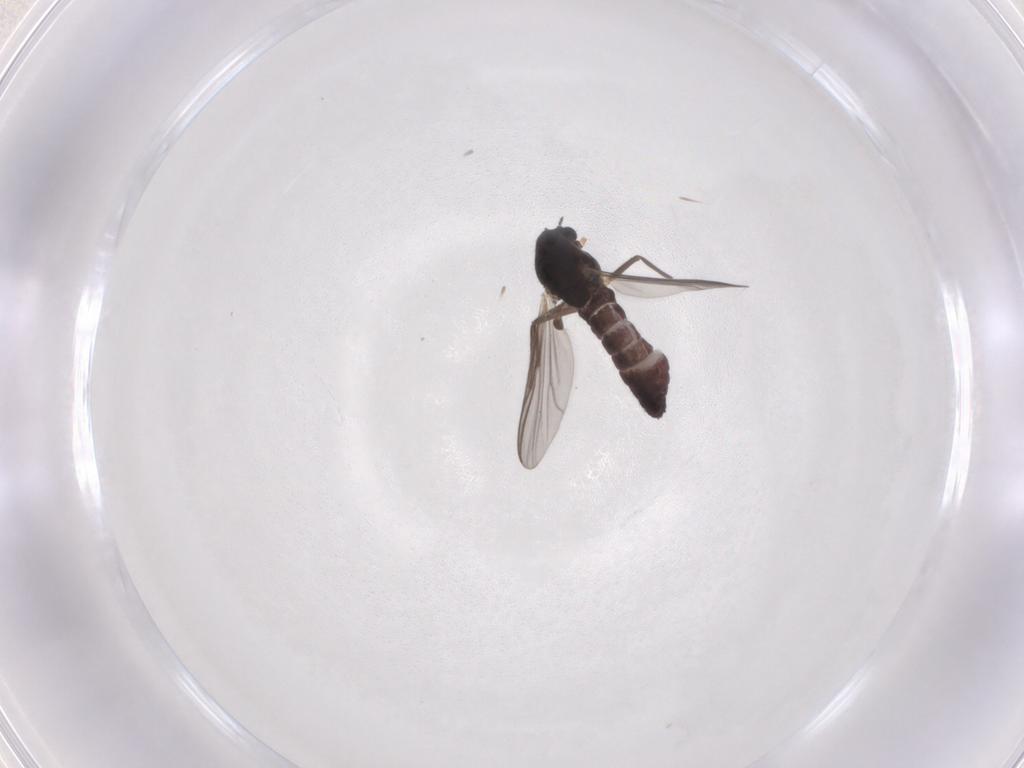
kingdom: Animalia
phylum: Arthropoda
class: Insecta
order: Diptera
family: Chironomidae
